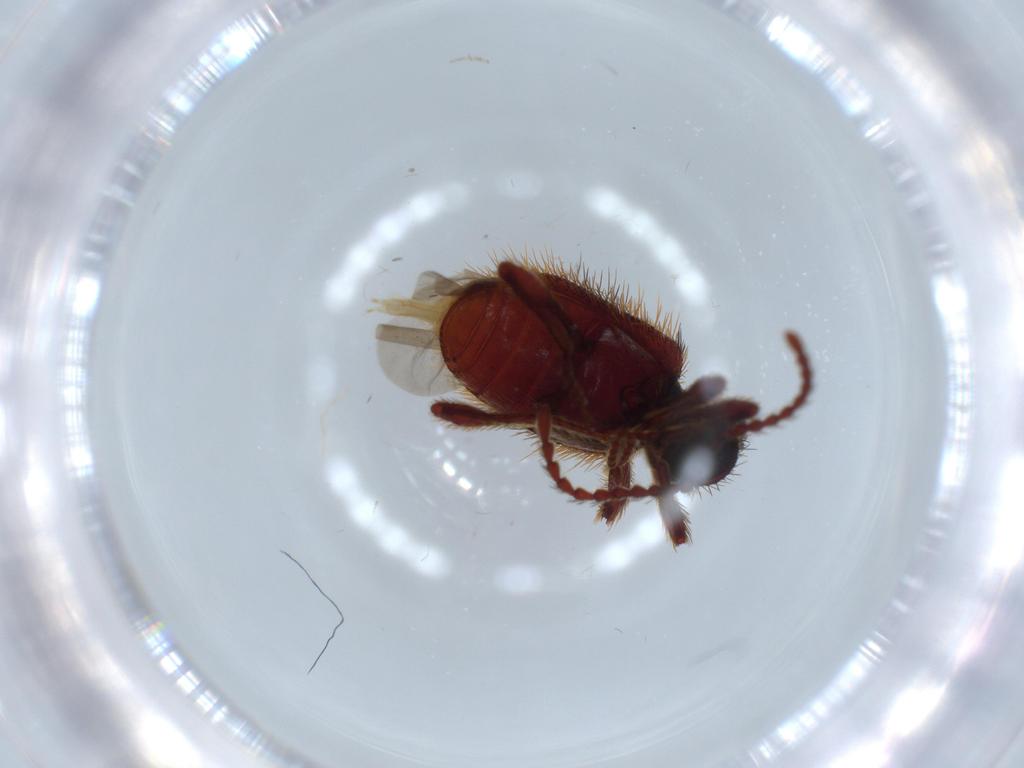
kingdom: Animalia
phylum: Arthropoda
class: Insecta
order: Coleoptera
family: Ptinidae
